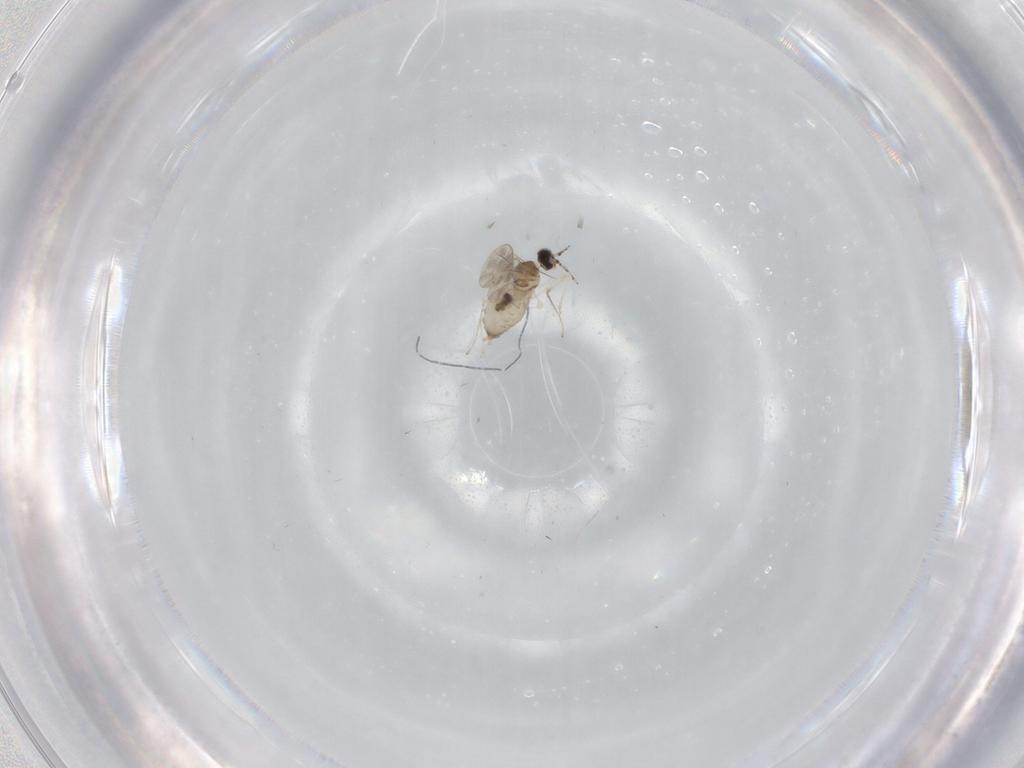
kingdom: Animalia
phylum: Arthropoda
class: Insecta
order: Diptera
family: Cecidomyiidae
